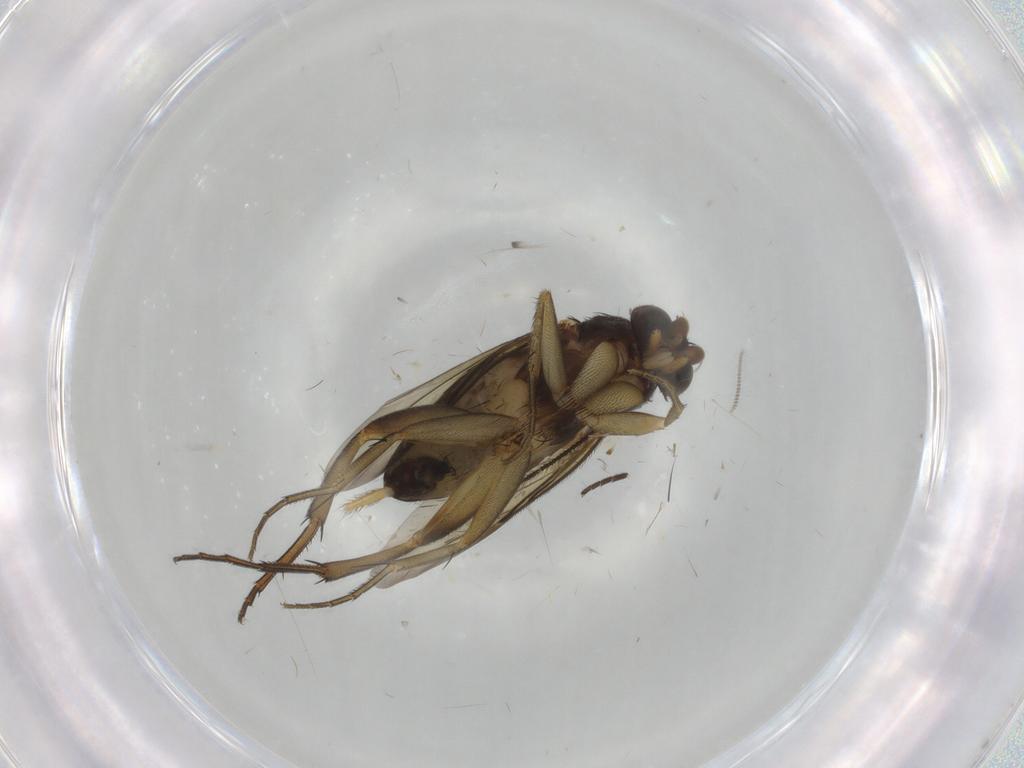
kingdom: Animalia
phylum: Arthropoda
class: Insecta
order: Diptera
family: Phoridae
